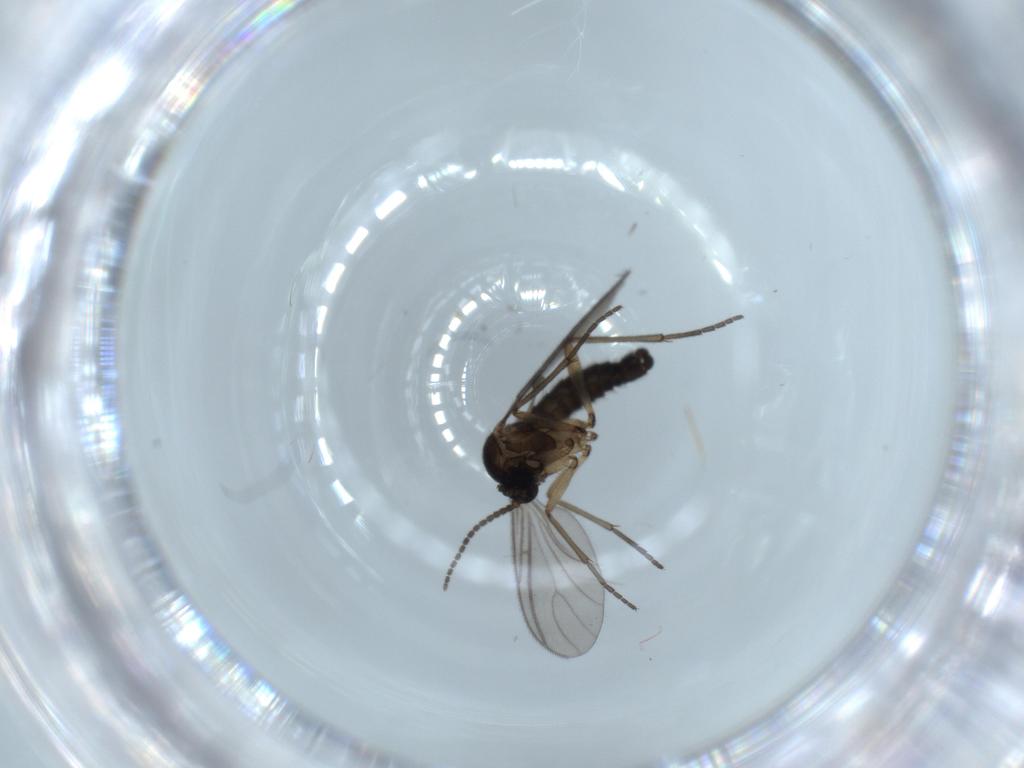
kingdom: Animalia
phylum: Arthropoda
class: Insecta
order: Diptera
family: Sciaridae
